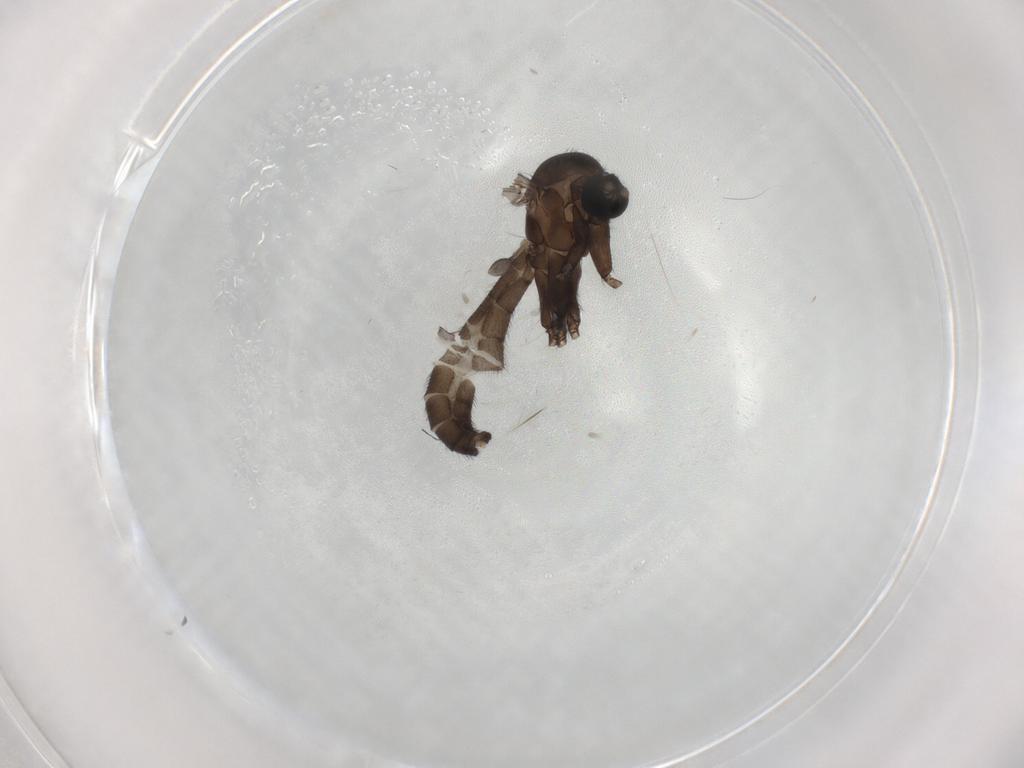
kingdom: Animalia
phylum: Arthropoda
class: Insecta
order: Diptera
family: Mycetophilidae
